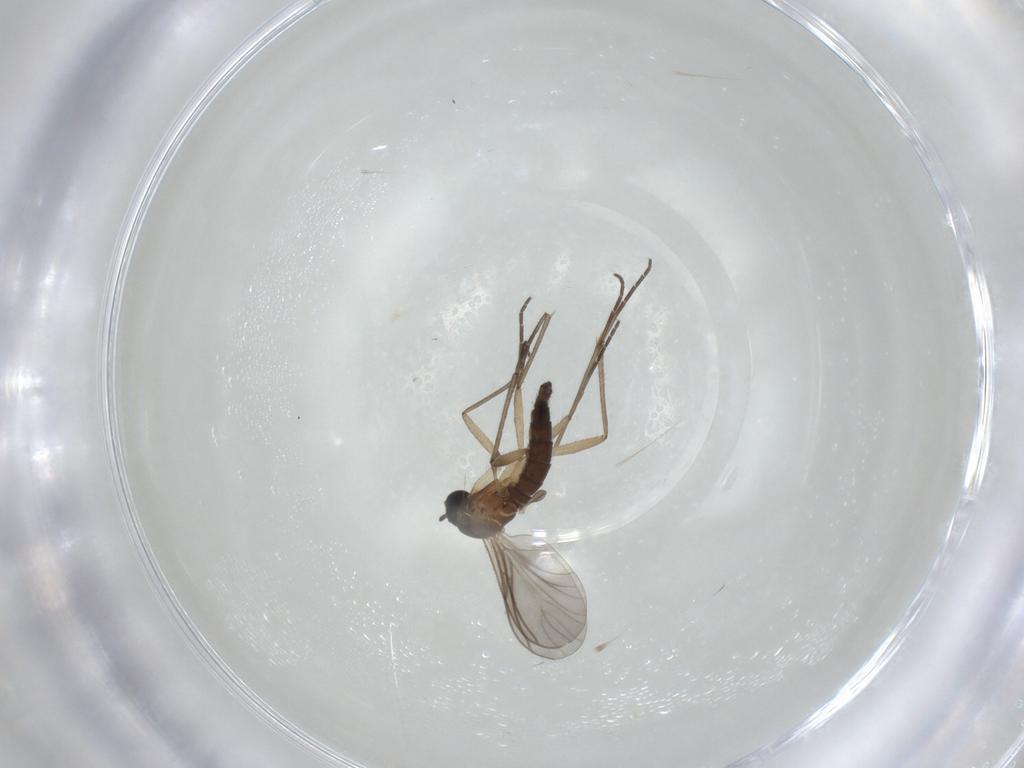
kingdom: Animalia
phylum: Arthropoda
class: Insecta
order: Diptera
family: Sciaridae
